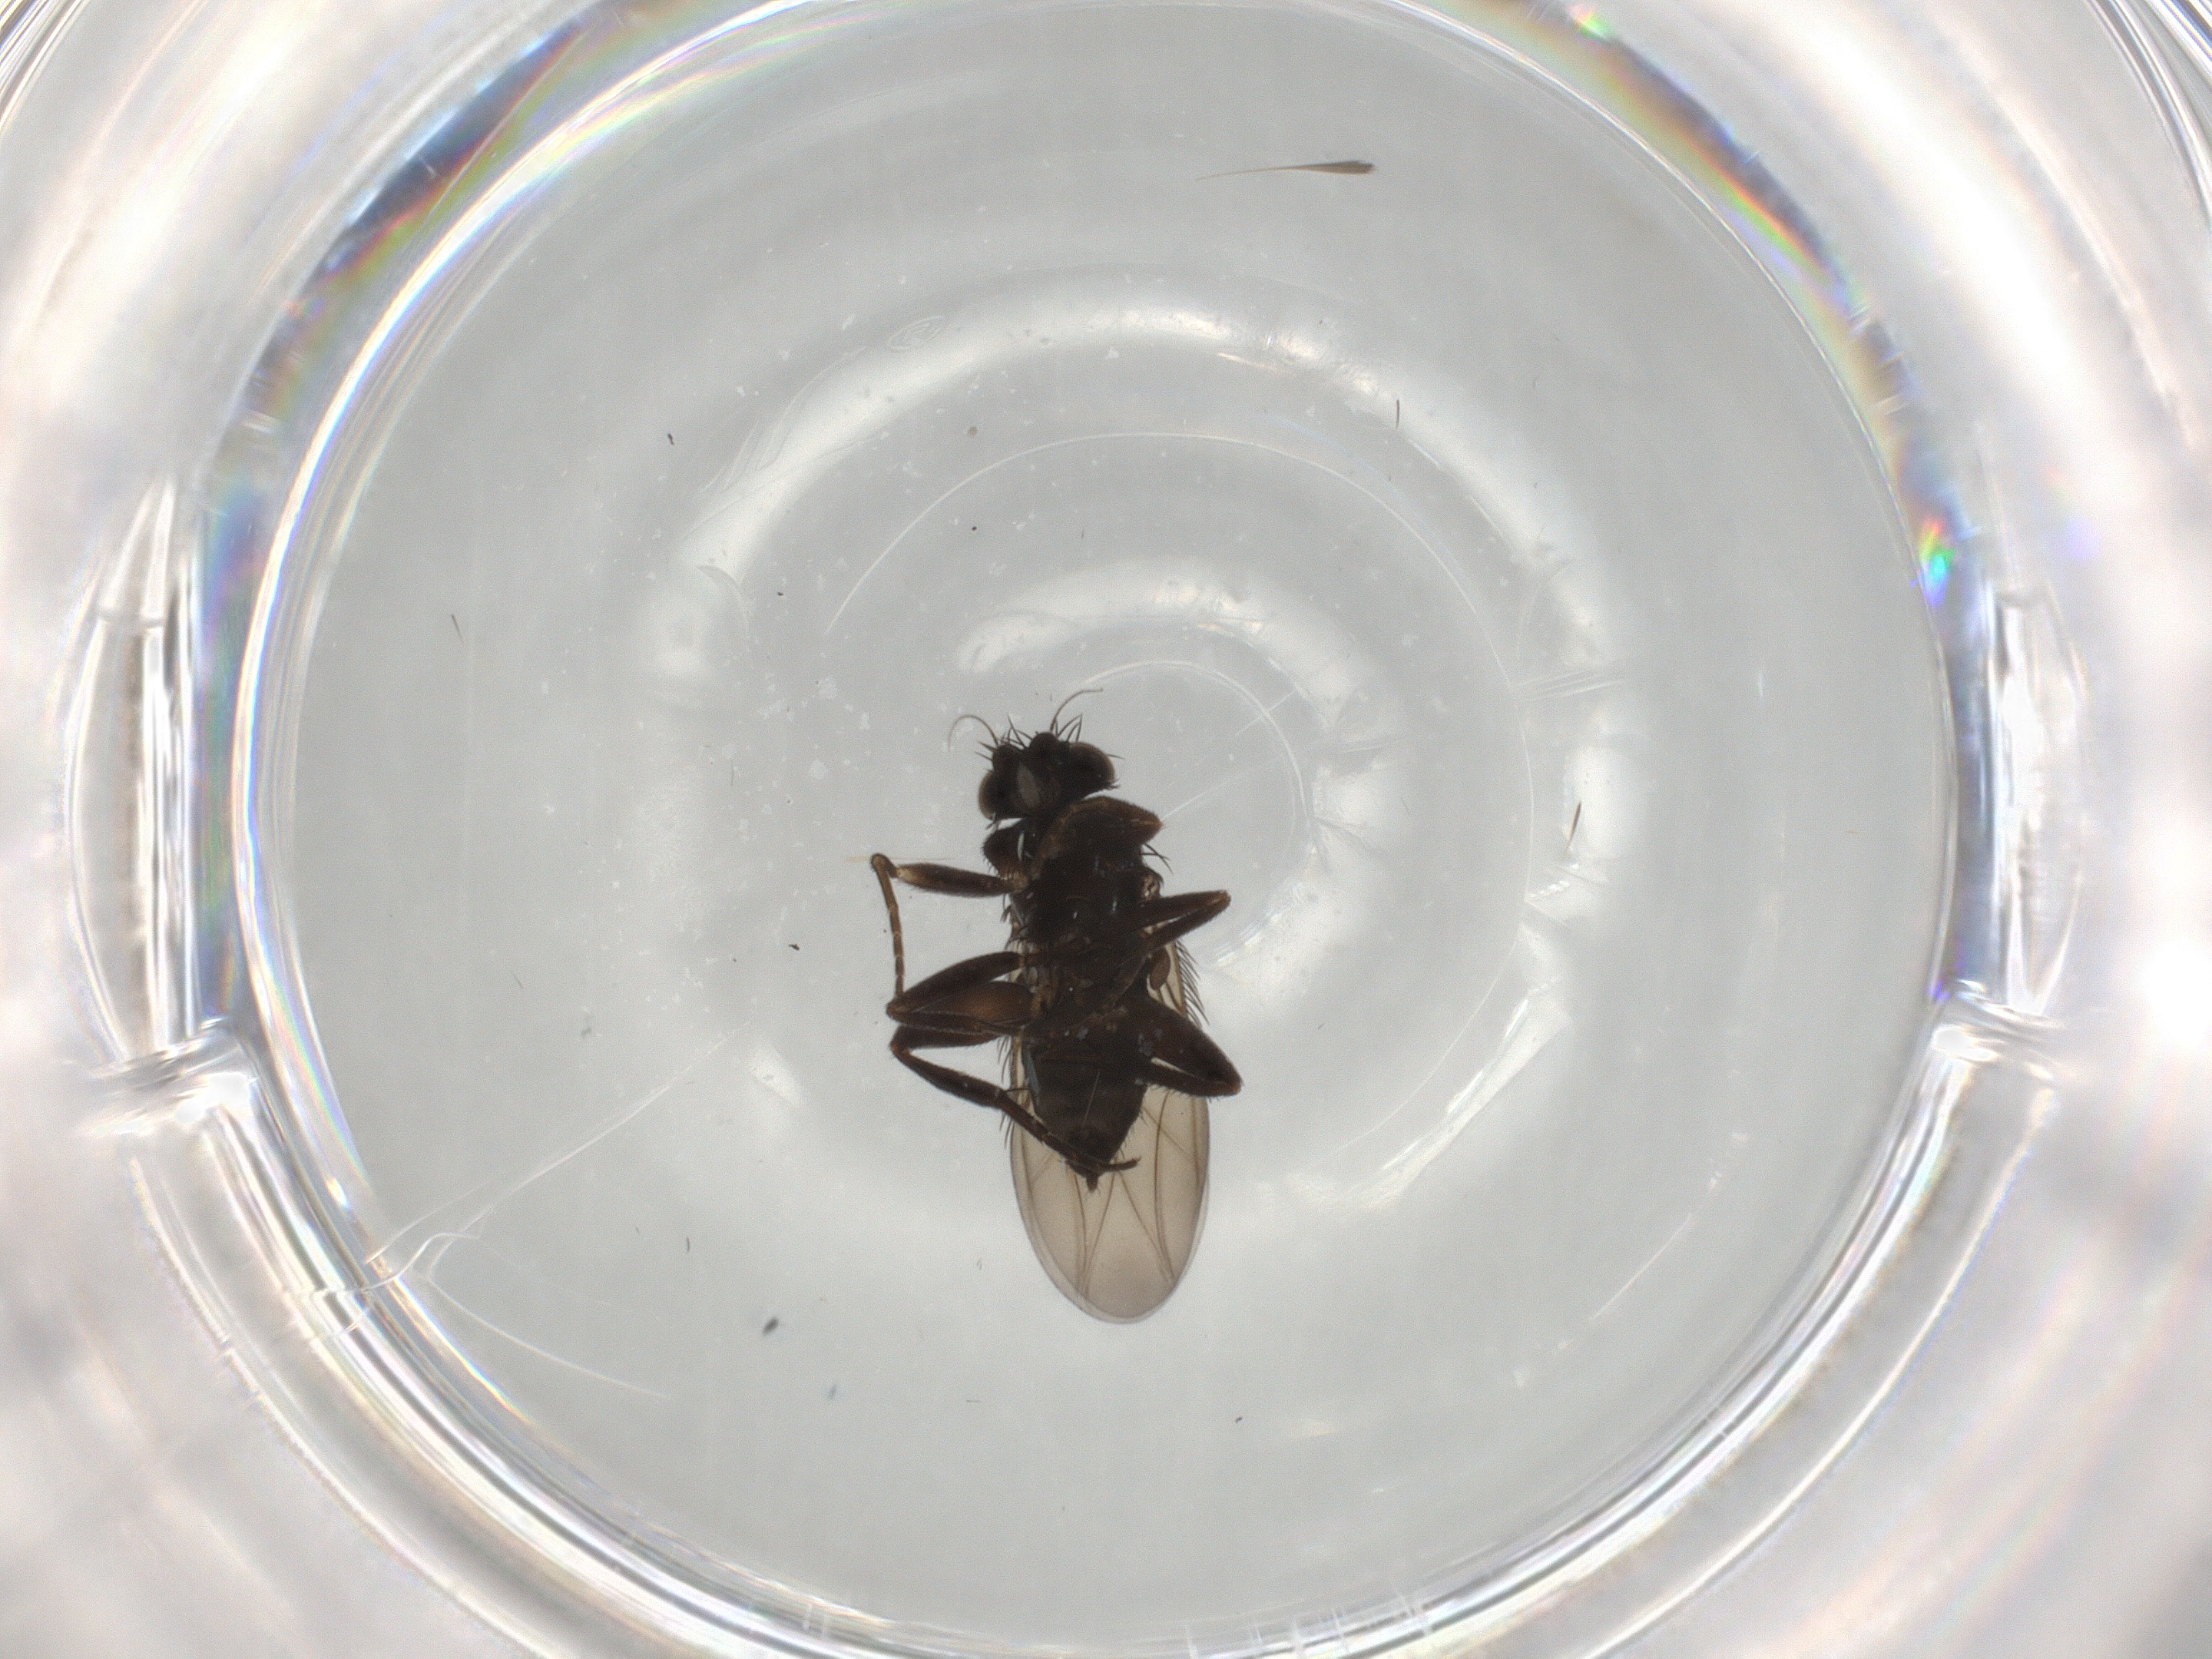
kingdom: Animalia
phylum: Arthropoda
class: Insecta
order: Diptera
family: Phoridae
